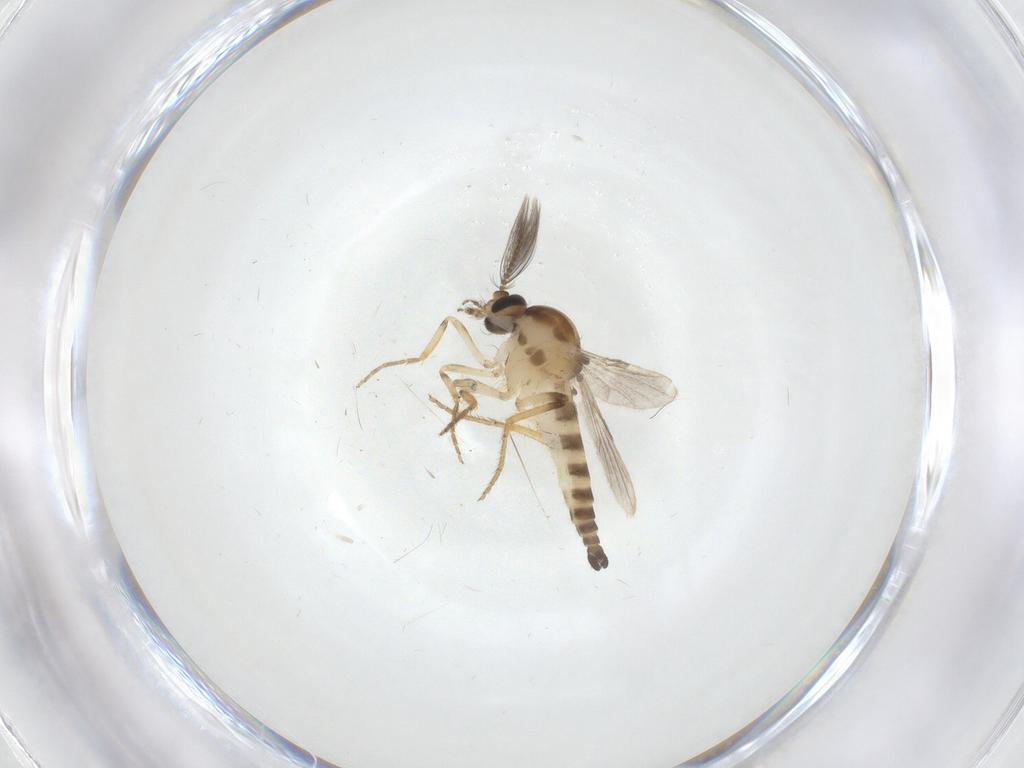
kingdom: Animalia
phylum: Arthropoda
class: Insecta
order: Diptera
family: Ceratopogonidae
